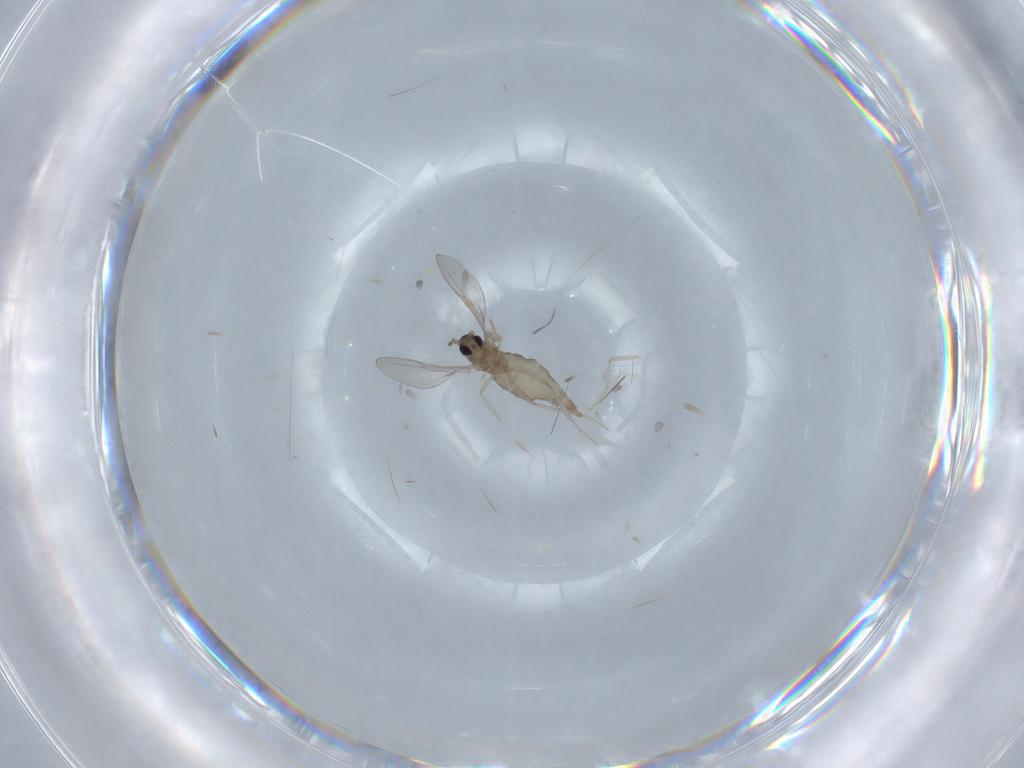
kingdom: Animalia
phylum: Arthropoda
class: Insecta
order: Diptera
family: Cecidomyiidae
